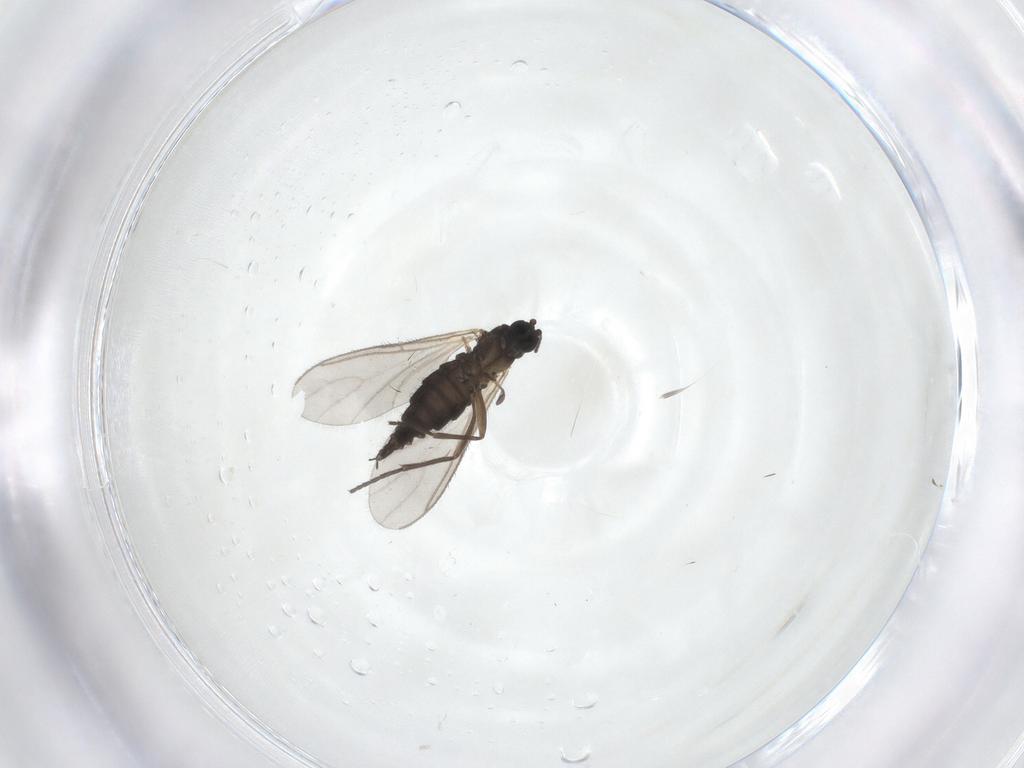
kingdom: Animalia
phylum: Arthropoda
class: Insecta
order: Diptera
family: Sciaridae
